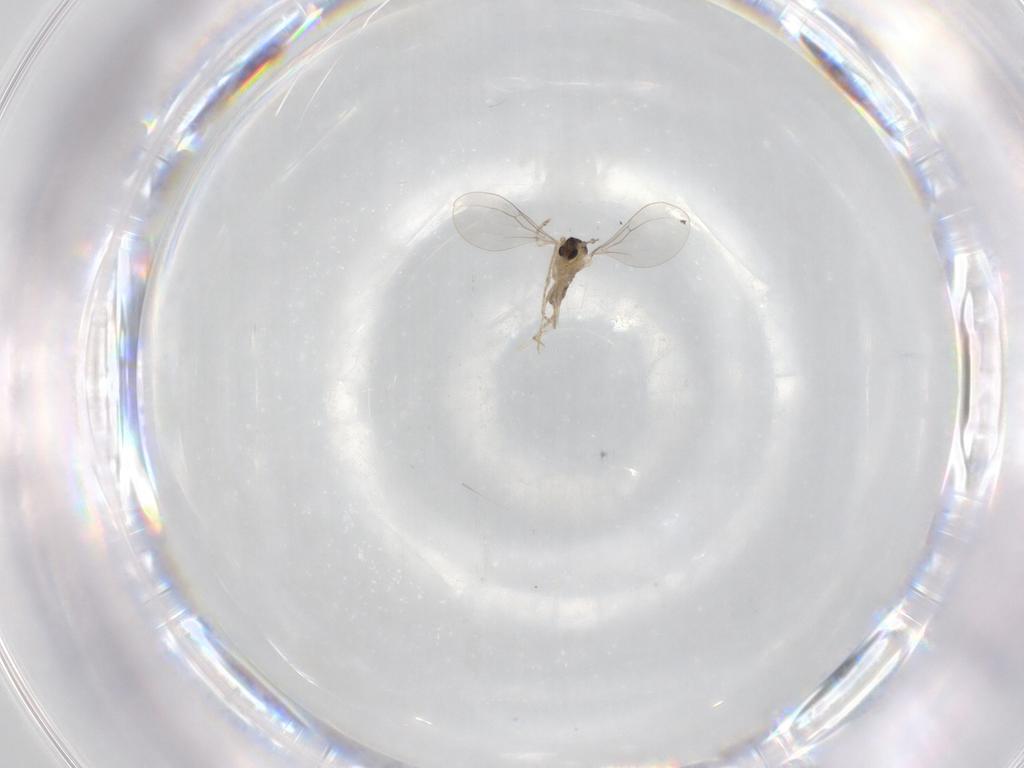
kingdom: Animalia
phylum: Arthropoda
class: Insecta
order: Diptera
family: Cecidomyiidae
